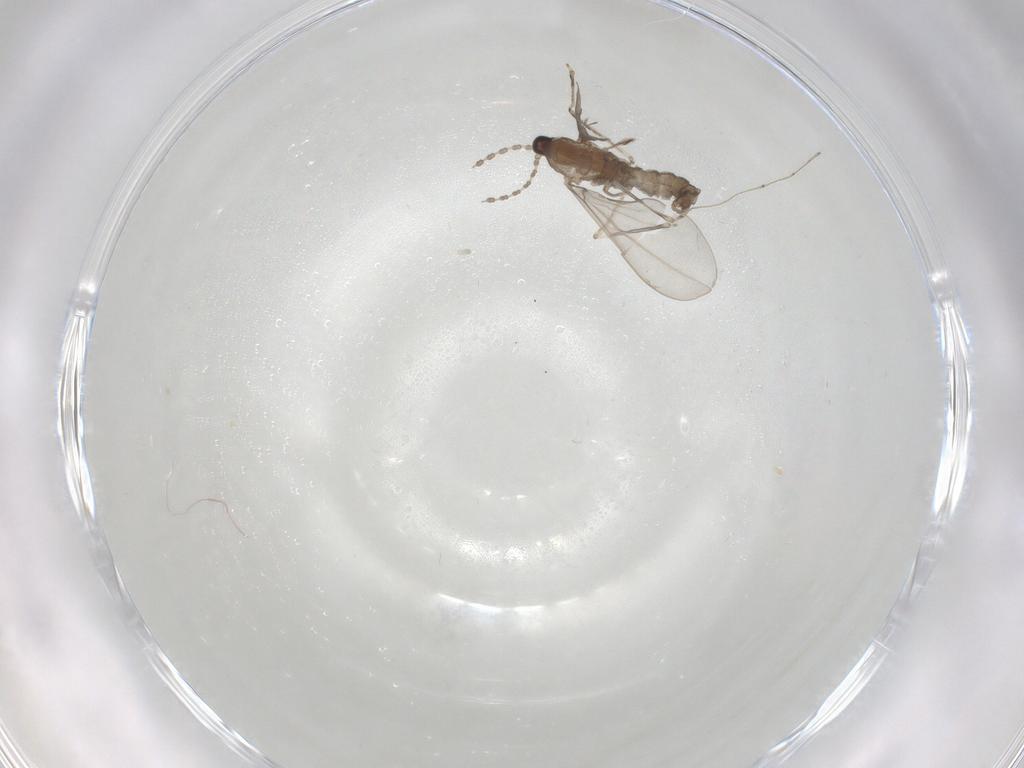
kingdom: Animalia
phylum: Arthropoda
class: Insecta
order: Diptera
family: Cecidomyiidae
